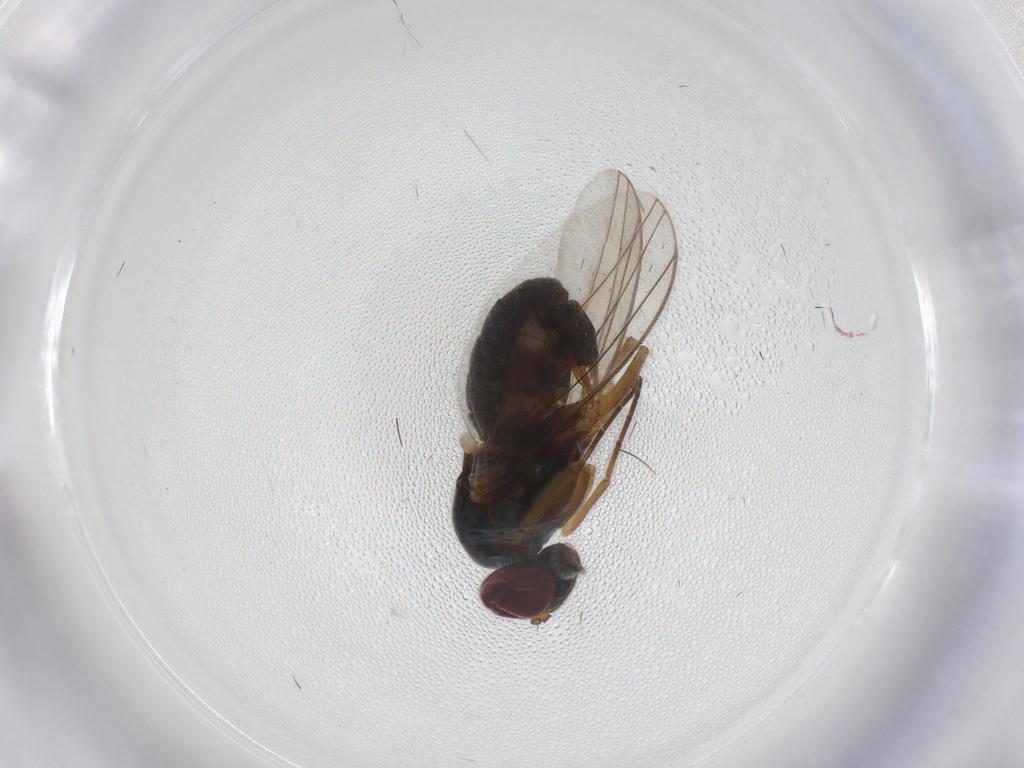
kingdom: Animalia
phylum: Arthropoda
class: Insecta
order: Diptera
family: Dolichopodidae
